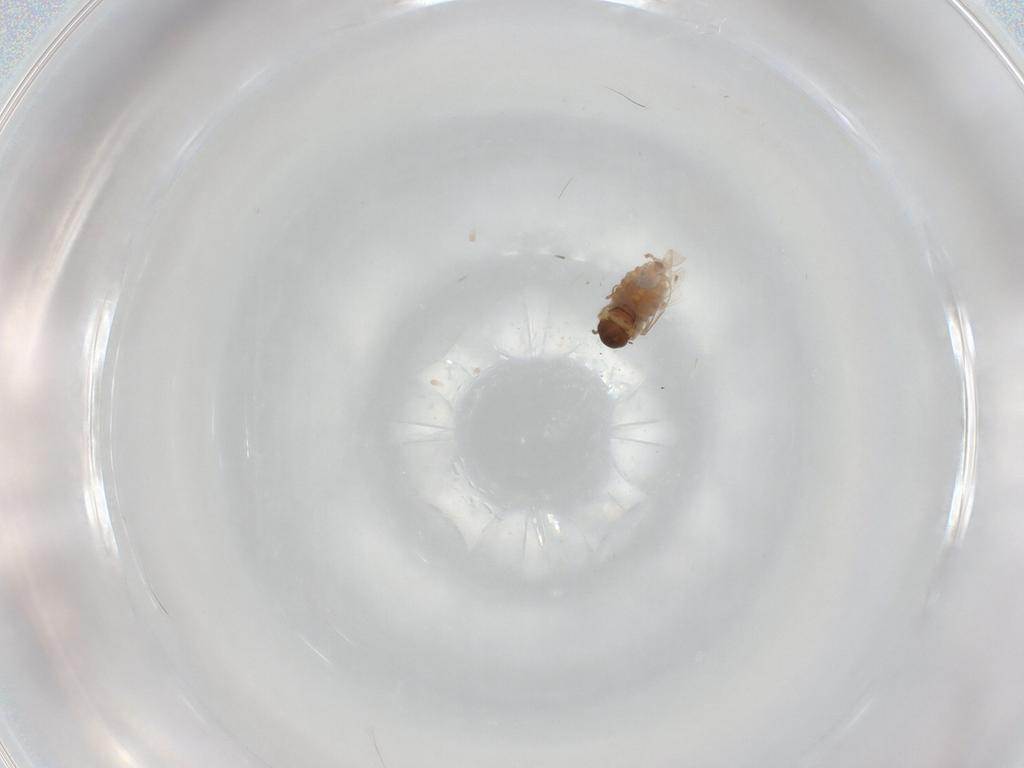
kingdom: Animalia
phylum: Arthropoda
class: Insecta
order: Diptera
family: Cecidomyiidae
